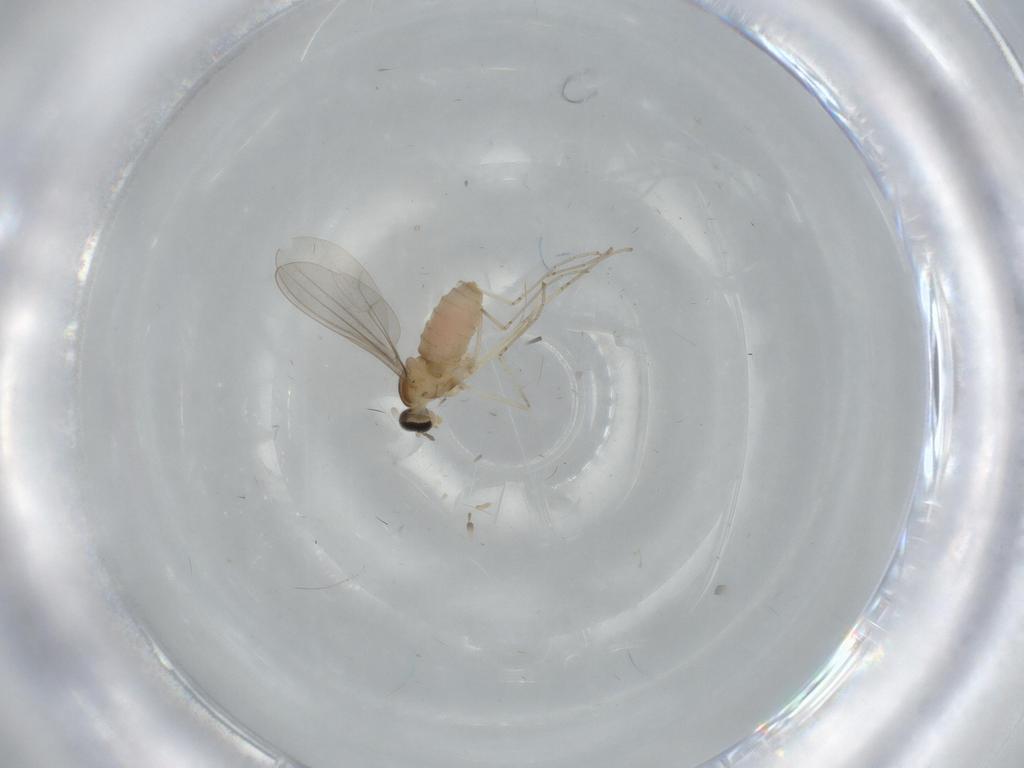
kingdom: Animalia
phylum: Arthropoda
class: Insecta
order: Diptera
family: Cecidomyiidae
